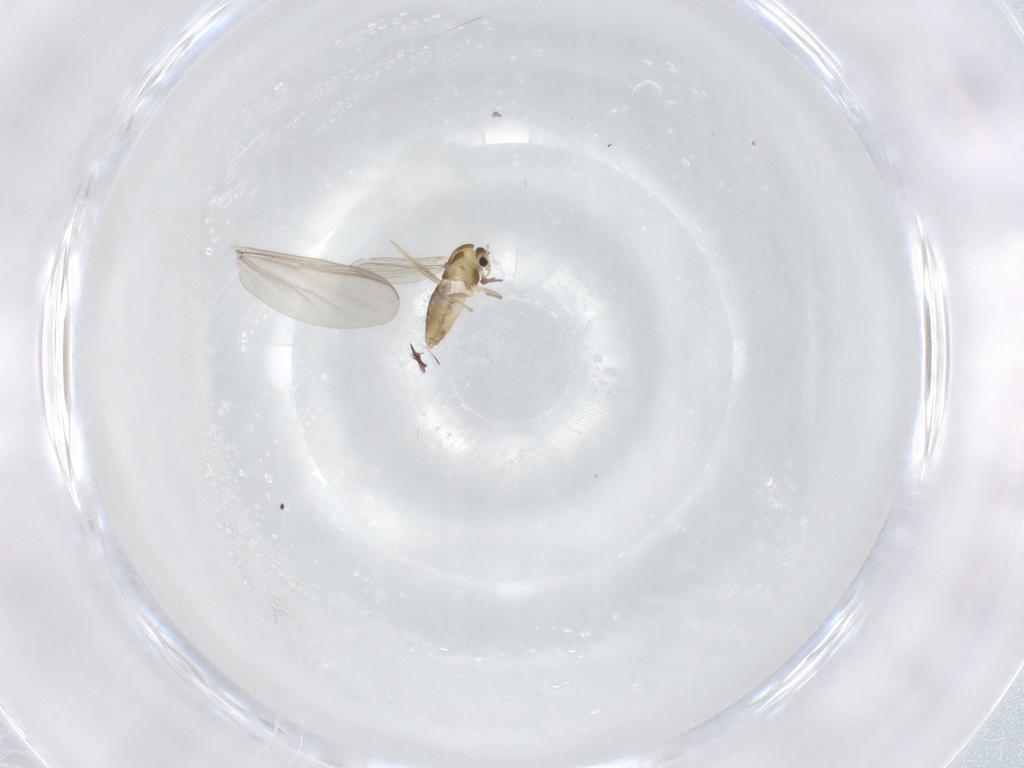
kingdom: Animalia
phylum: Arthropoda
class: Insecta
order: Diptera
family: Chironomidae
